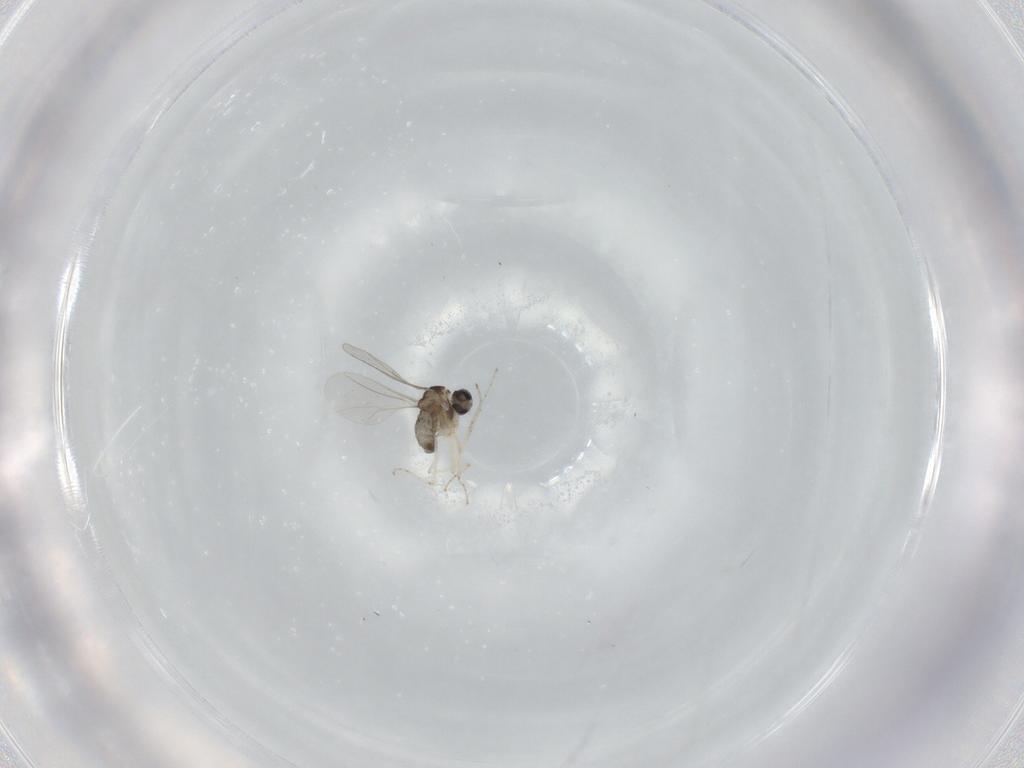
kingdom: Animalia
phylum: Arthropoda
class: Insecta
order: Diptera
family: Cecidomyiidae
